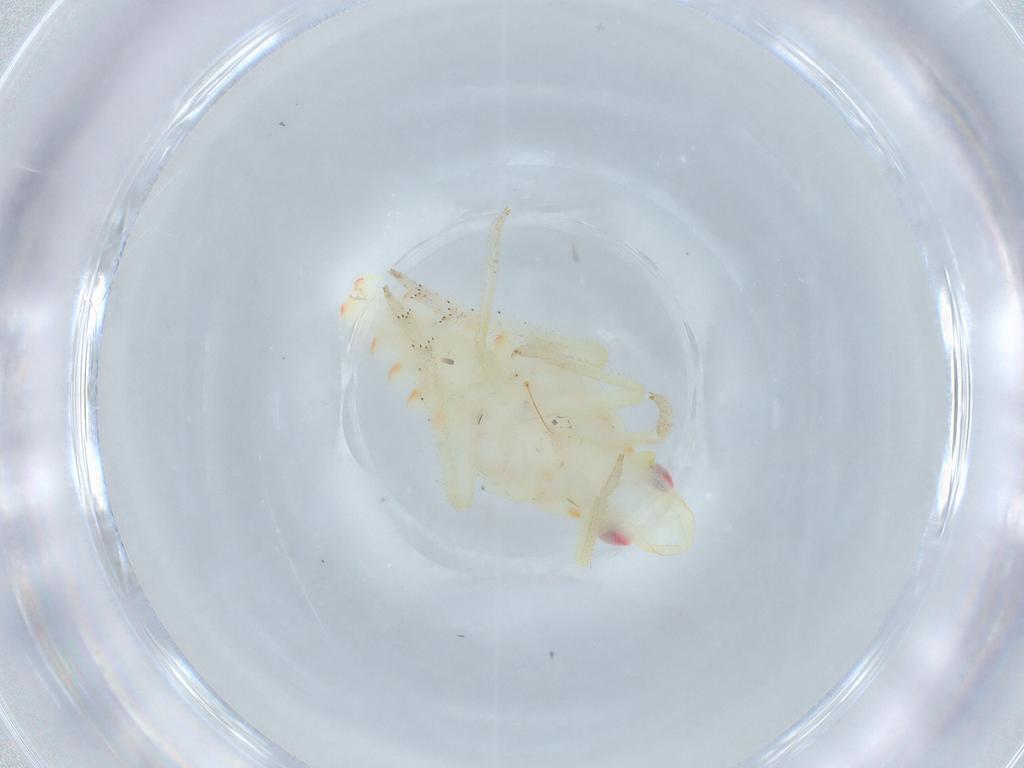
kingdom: Animalia
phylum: Arthropoda
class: Insecta
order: Hemiptera
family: Tropiduchidae
